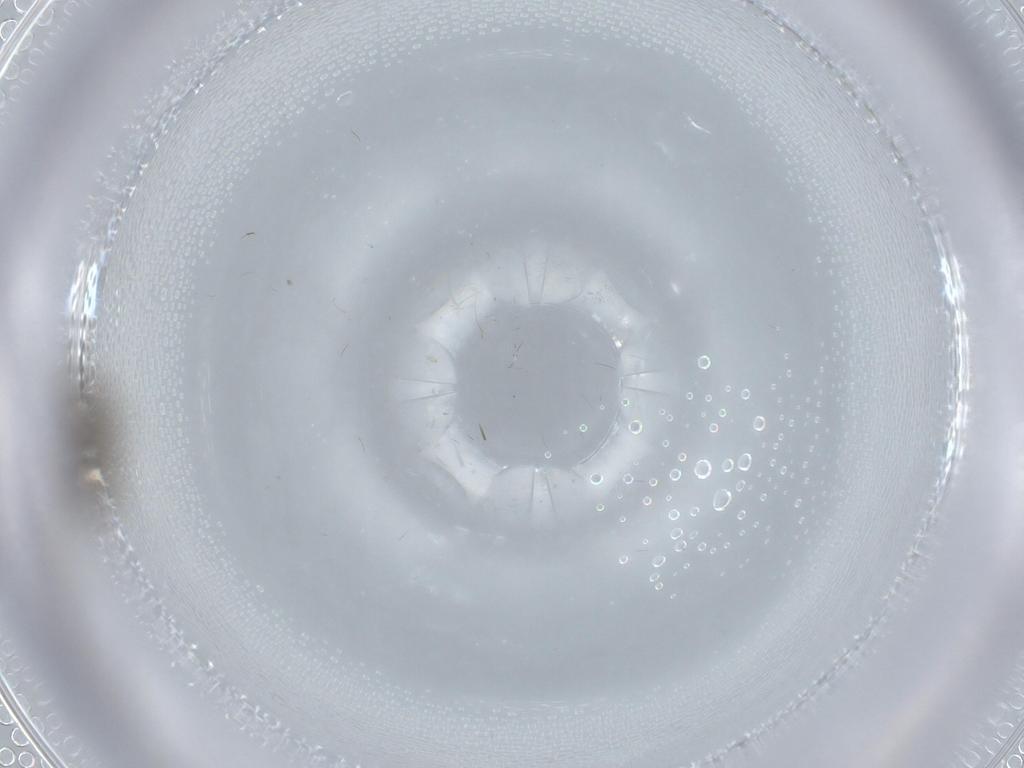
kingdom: Animalia
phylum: Arthropoda
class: Insecta
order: Diptera
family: Psychodidae
